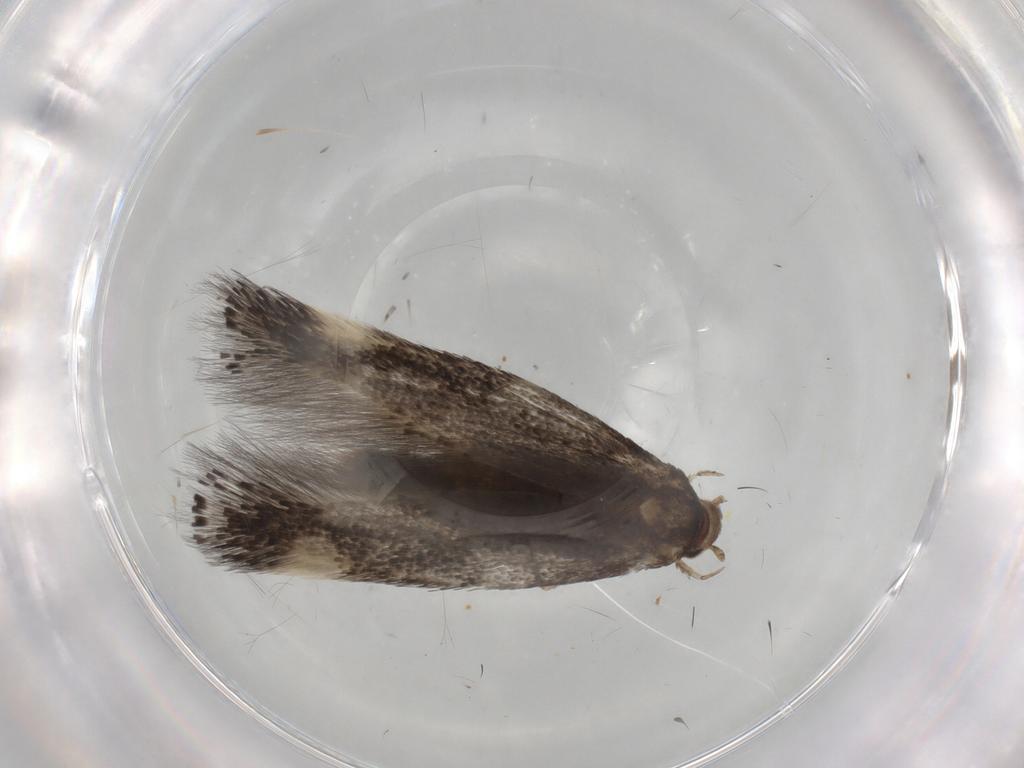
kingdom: Animalia
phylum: Arthropoda
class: Insecta
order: Lepidoptera
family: Elachistidae
